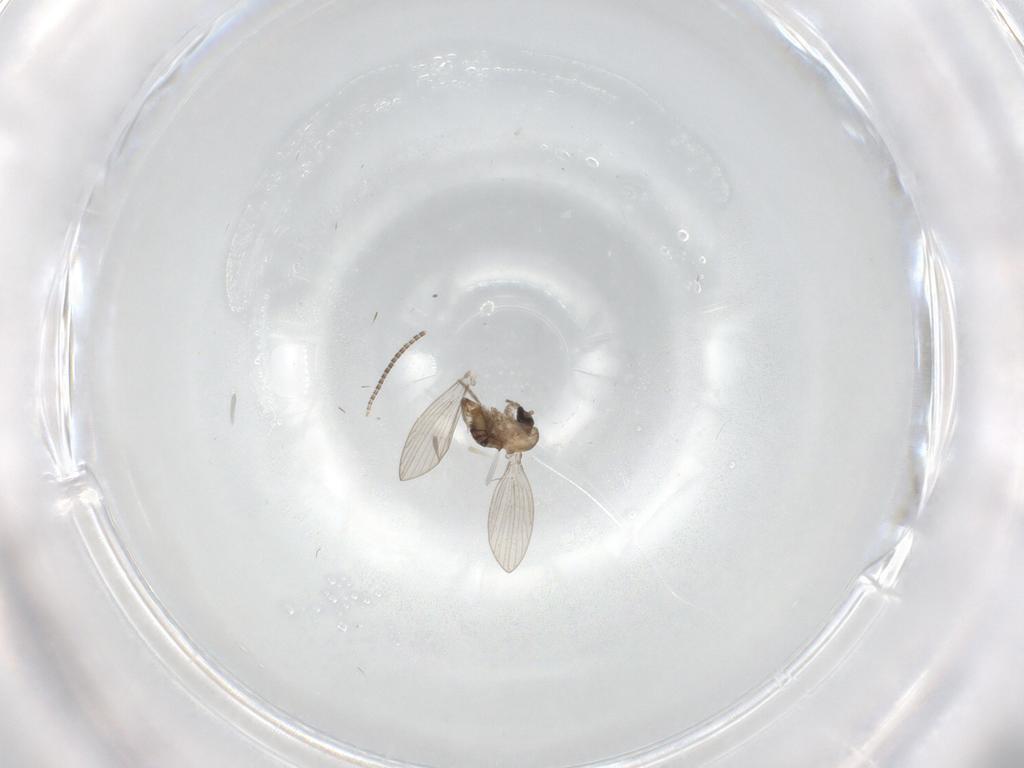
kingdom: Animalia
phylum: Arthropoda
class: Insecta
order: Diptera
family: Psychodidae
